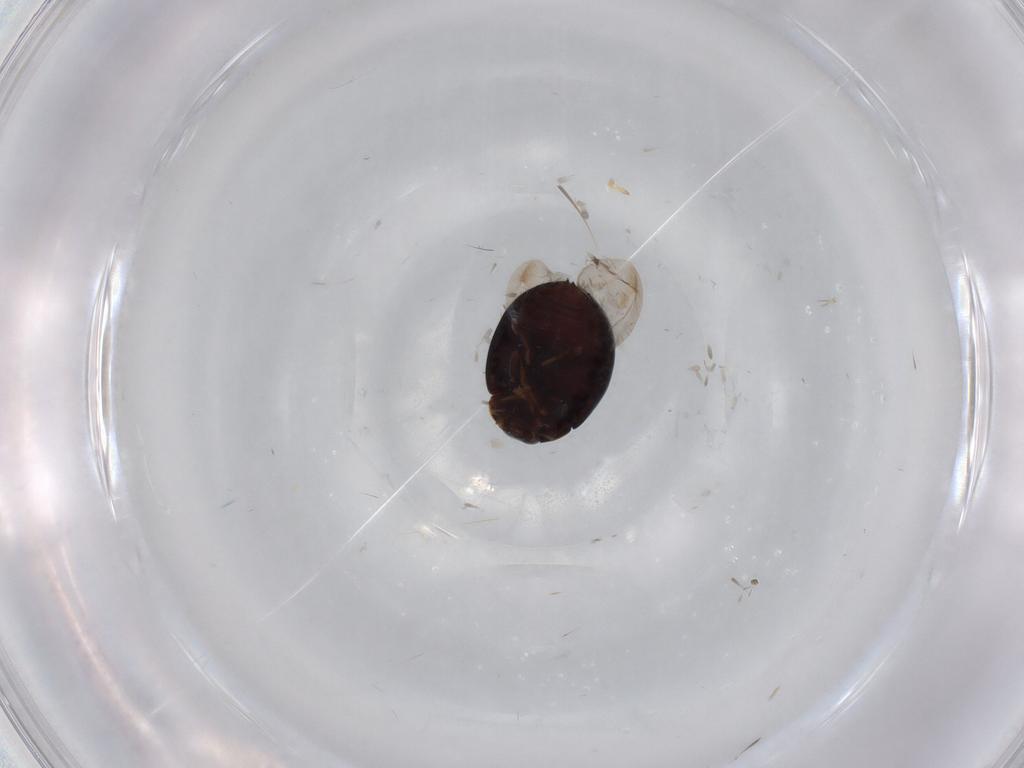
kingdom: Animalia
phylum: Arthropoda
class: Insecta
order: Coleoptera
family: Coccinellidae
